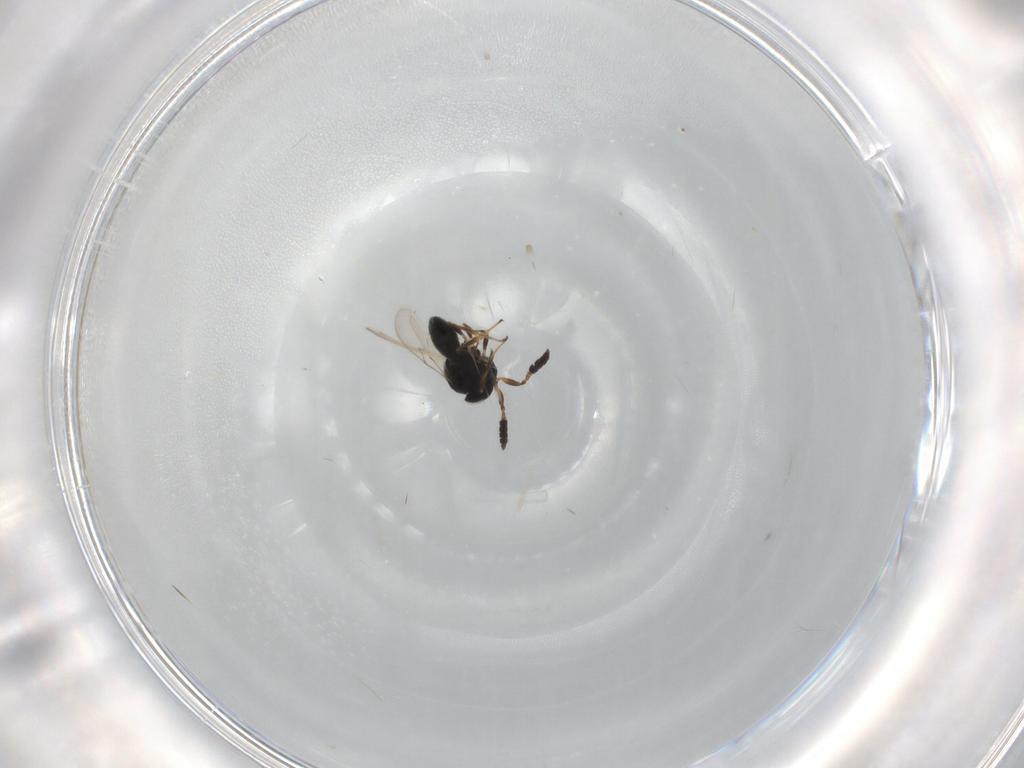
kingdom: Animalia
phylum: Arthropoda
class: Insecta
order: Hymenoptera
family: Scelionidae
